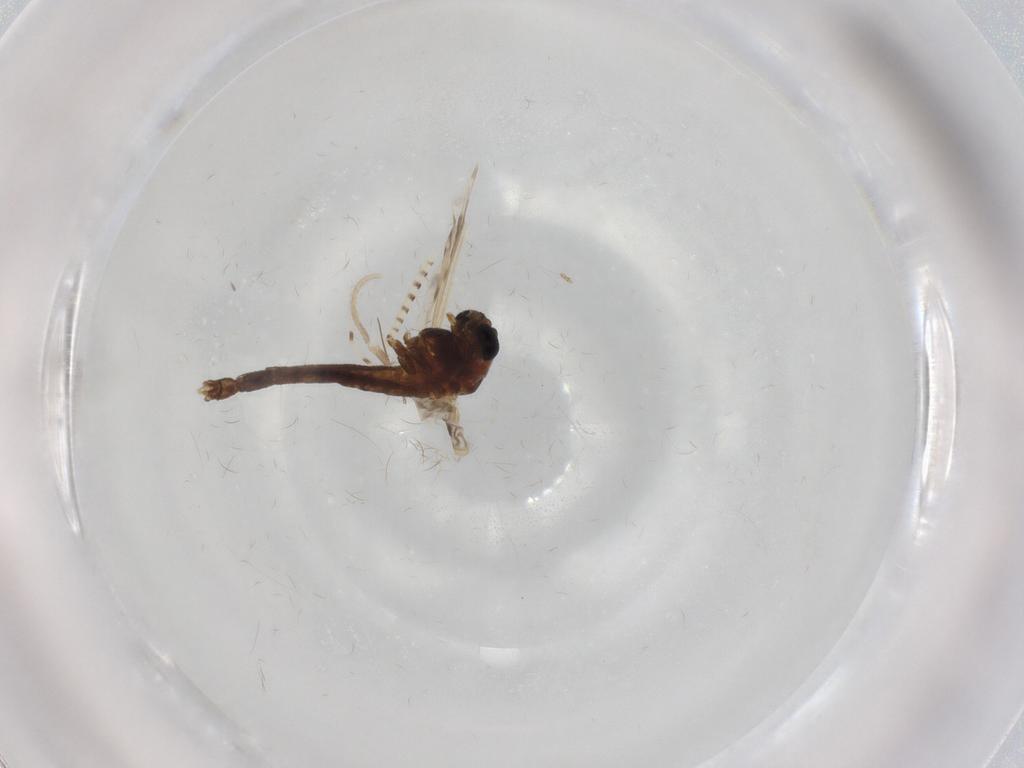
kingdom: Animalia
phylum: Arthropoda
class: Insecta
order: Diptera
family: Chironomidae
